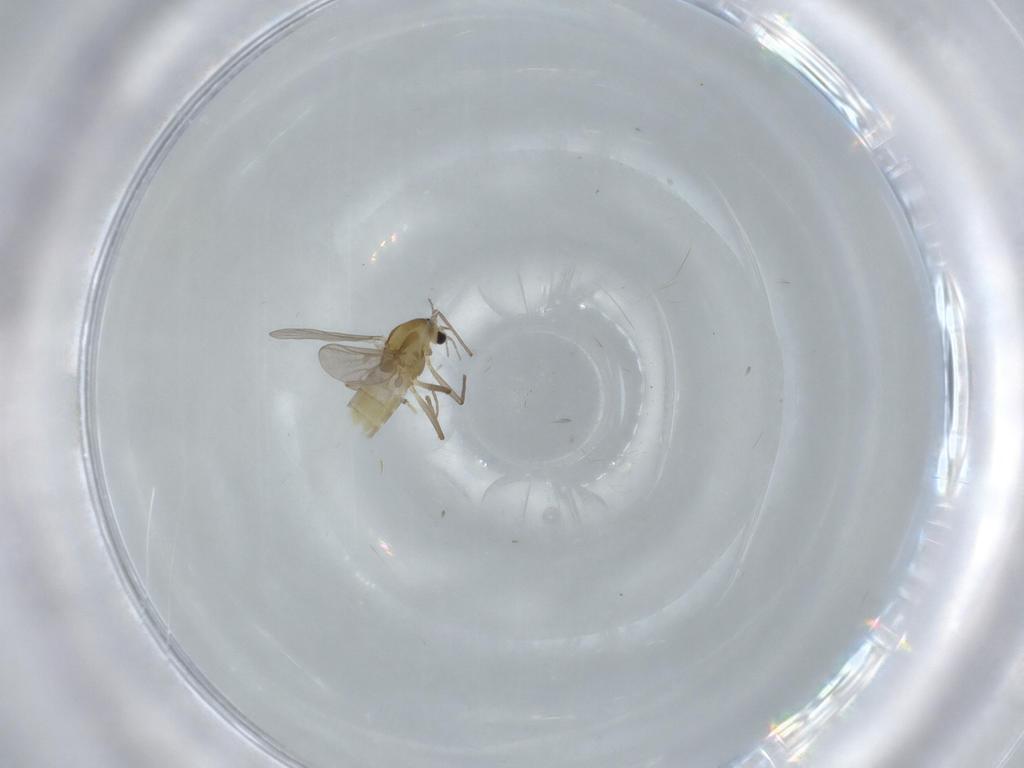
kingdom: Animalia
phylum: Arthropoda
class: Insecta
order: Diptera
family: Chironomidae
